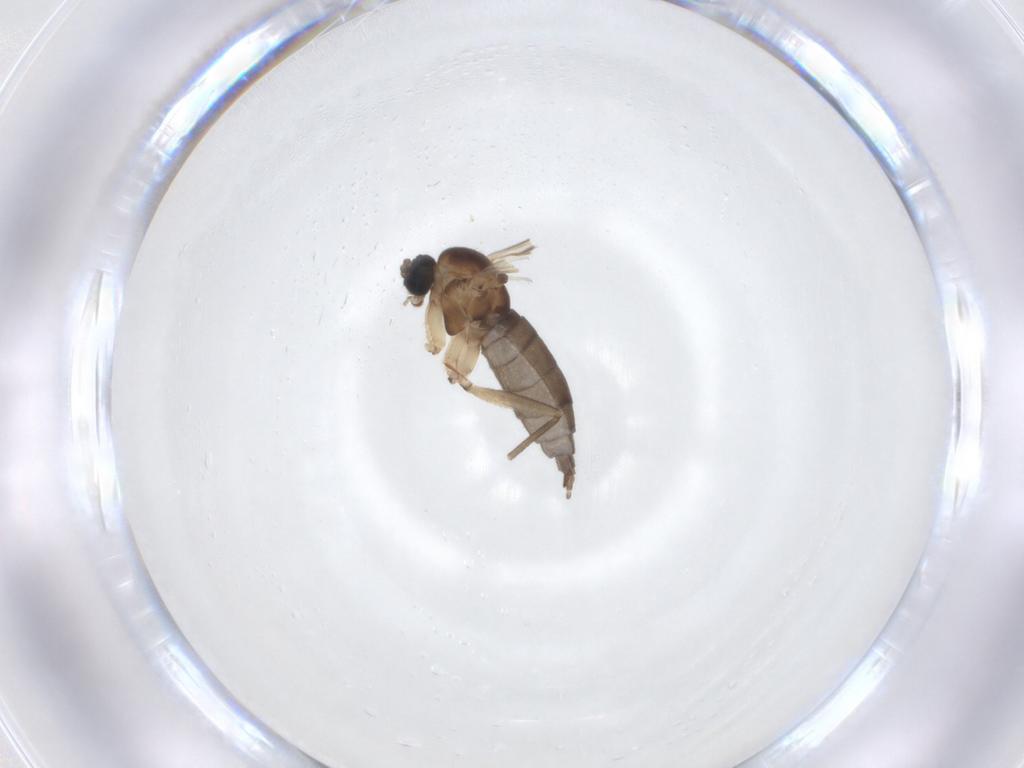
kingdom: Animalia
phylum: Arthropoda
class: Insecta
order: Diptera
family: Sciaridae
